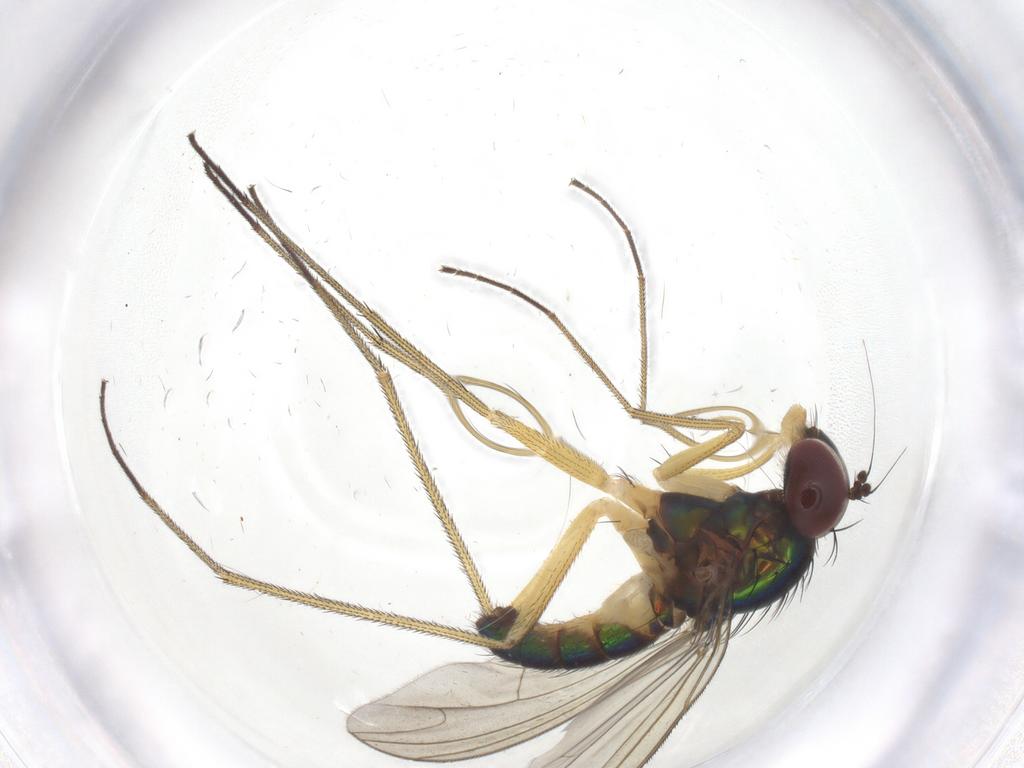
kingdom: Animalia
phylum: Arthropoda
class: Insecta
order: Diptera
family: Dolichopodidae
